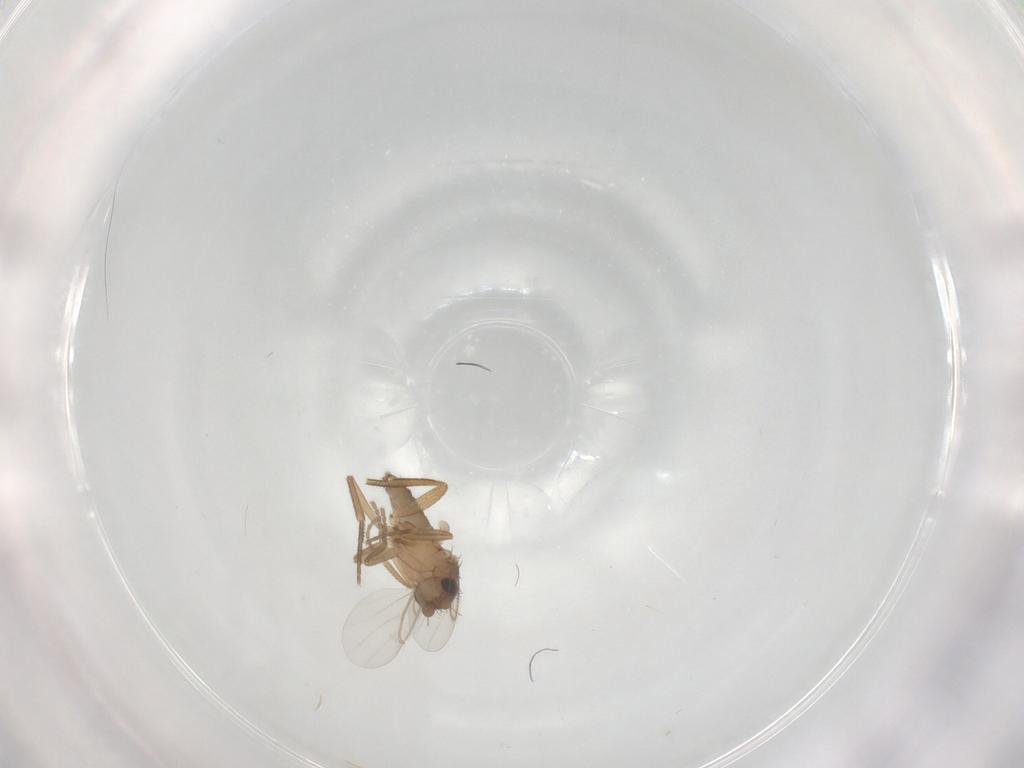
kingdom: Animalia
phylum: Arthropoda
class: Insecta
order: Diptera
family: Phoridae
